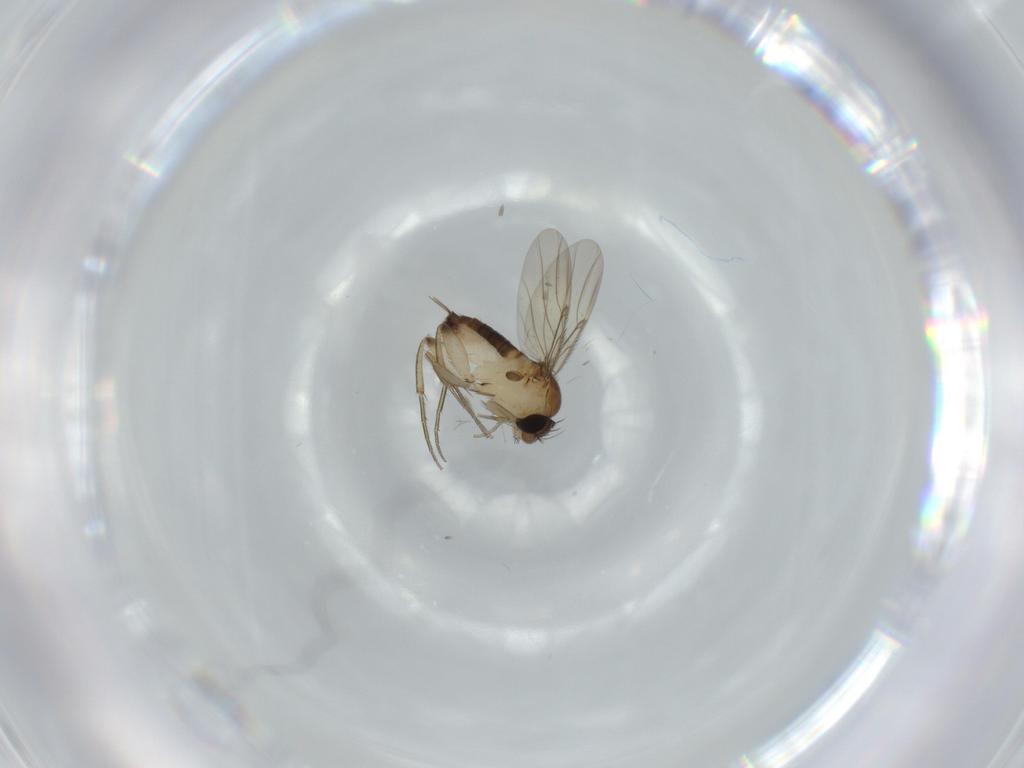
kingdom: Animalia
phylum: Arthropoda
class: Insecta
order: Diptera
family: Phoridae
